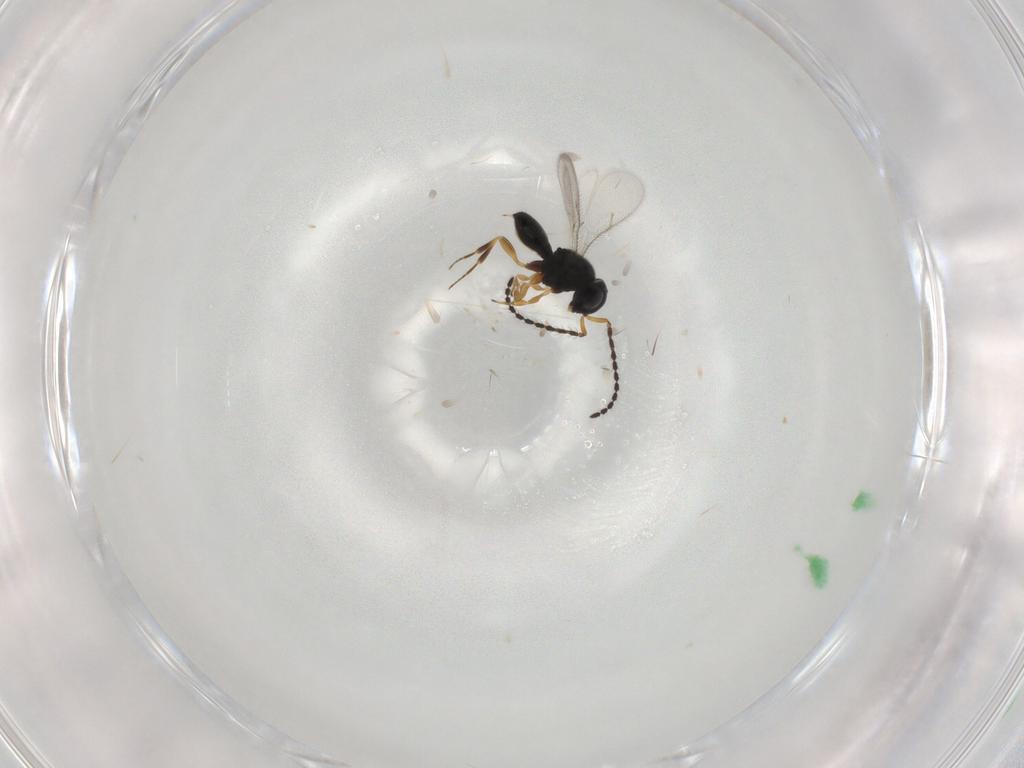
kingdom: Animalia
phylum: Arthropoda
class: Insecta
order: Hymenoptera
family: Scelionidae
